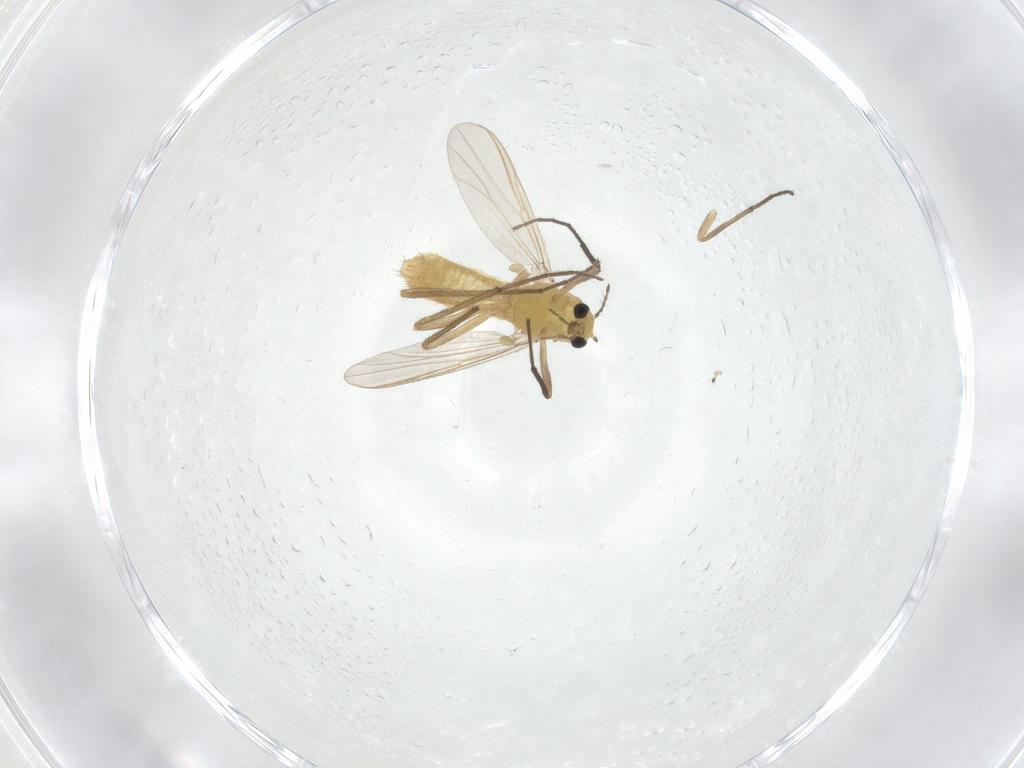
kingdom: Animalia
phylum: Arthropoda
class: Insecta
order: Diptera
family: Chironomidae
